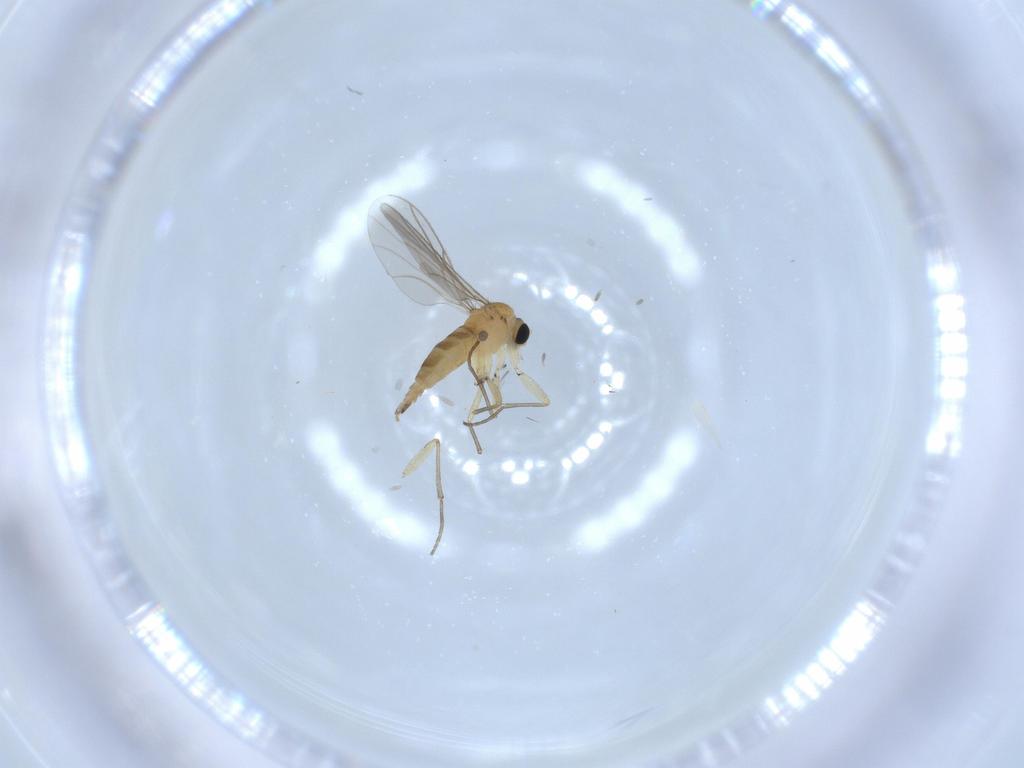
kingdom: Animalia
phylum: Arthropoda
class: Insecta
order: Diptera
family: Sciaridae
